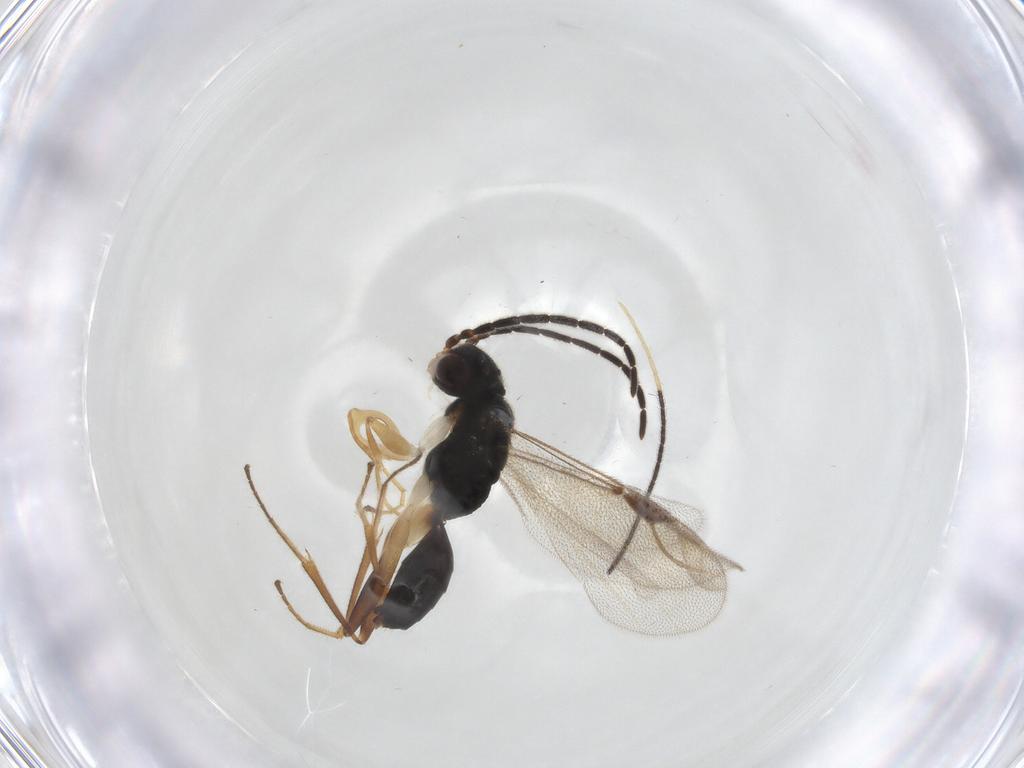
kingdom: Animalia
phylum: Arthropoda
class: Insecta
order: Hymenoptera
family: Dryinidae
